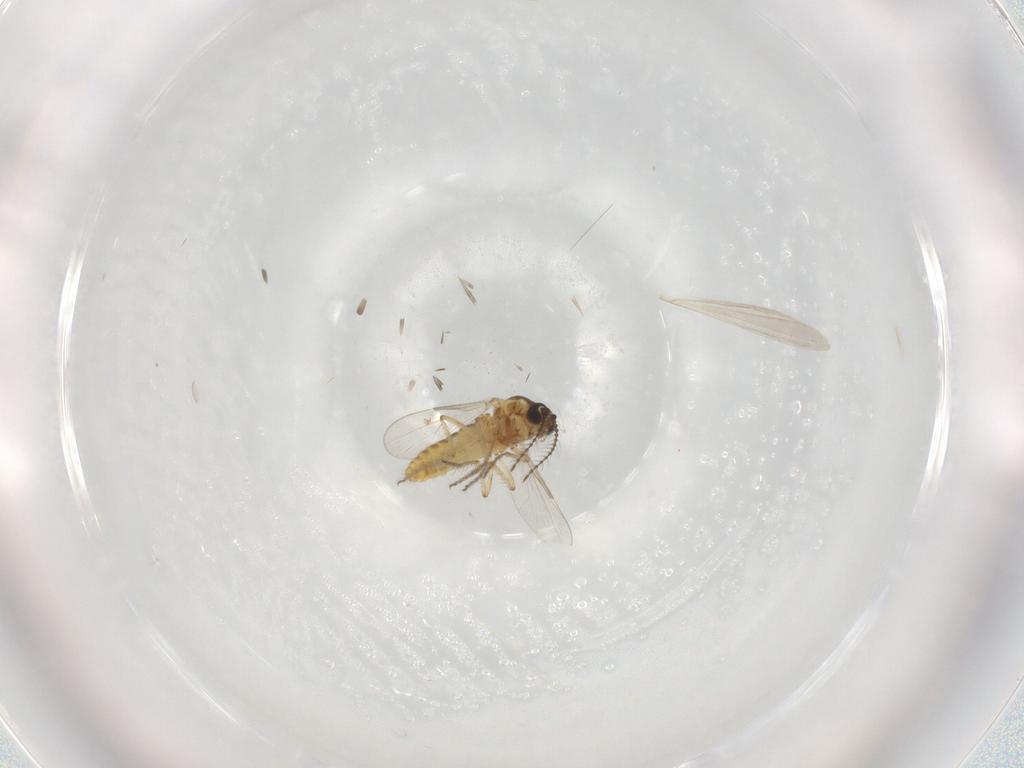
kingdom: Animalia
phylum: Arthropoda
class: Insecta
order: Diptera
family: Ceratopogonidae
